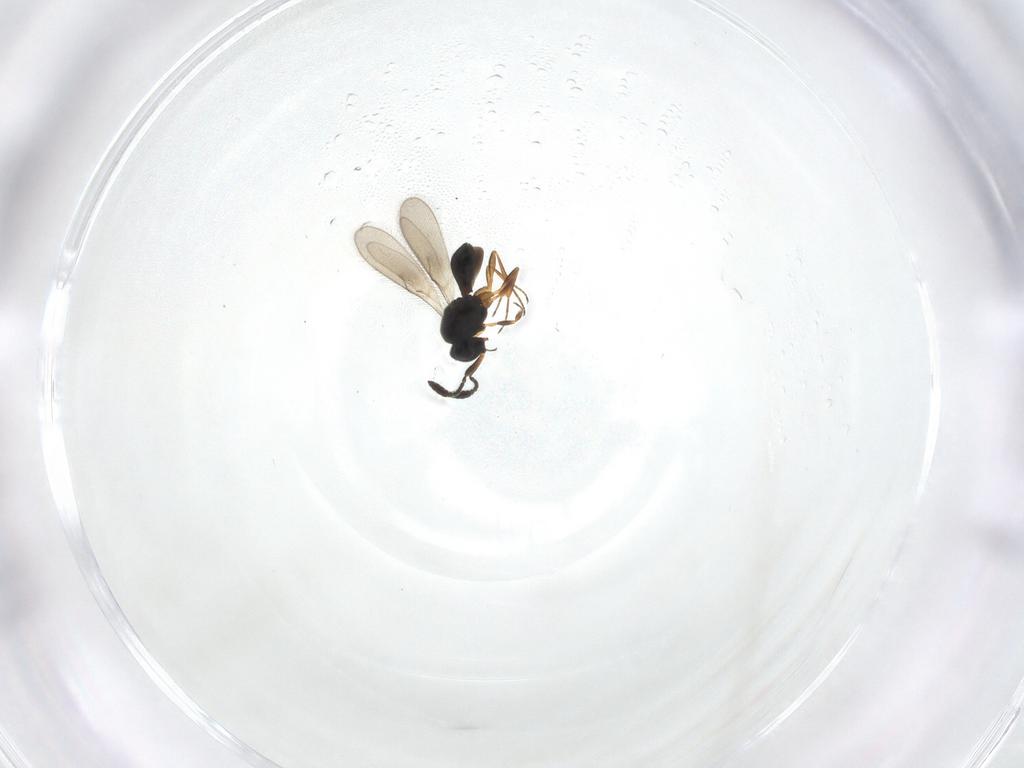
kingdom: Animalia
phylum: Arthropoda
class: Insecta
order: Hymenoptera
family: Scelionidae
